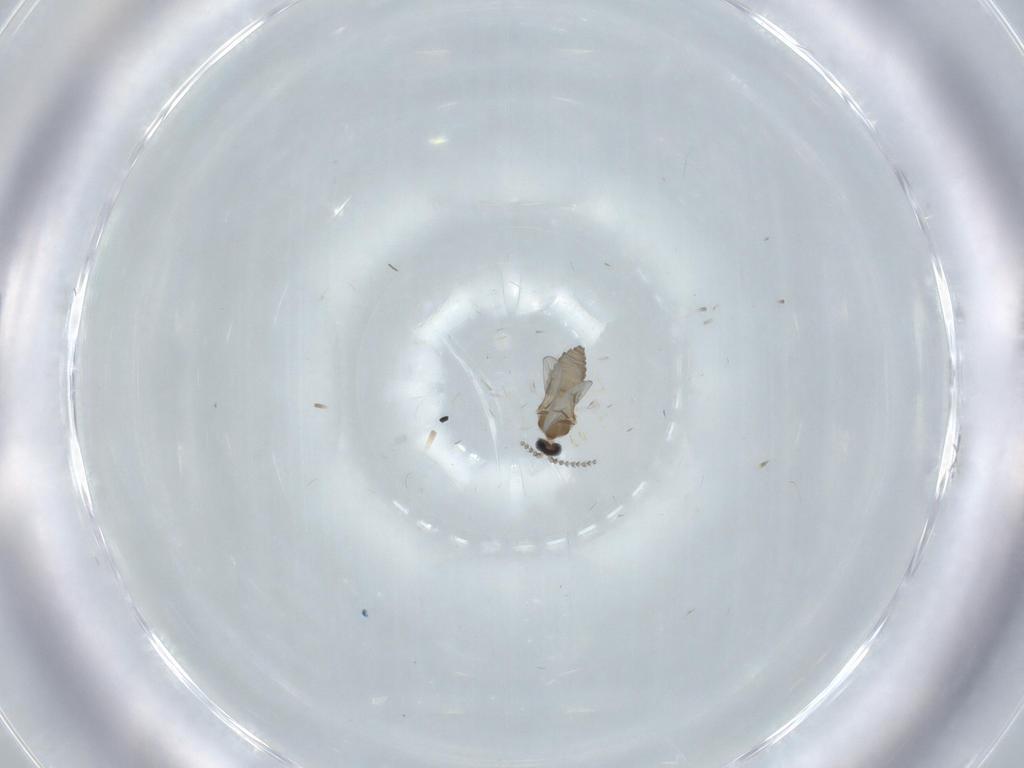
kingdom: Animalia
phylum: Arthropoda
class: Insecta
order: Diptera
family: Cecidomyiidae
